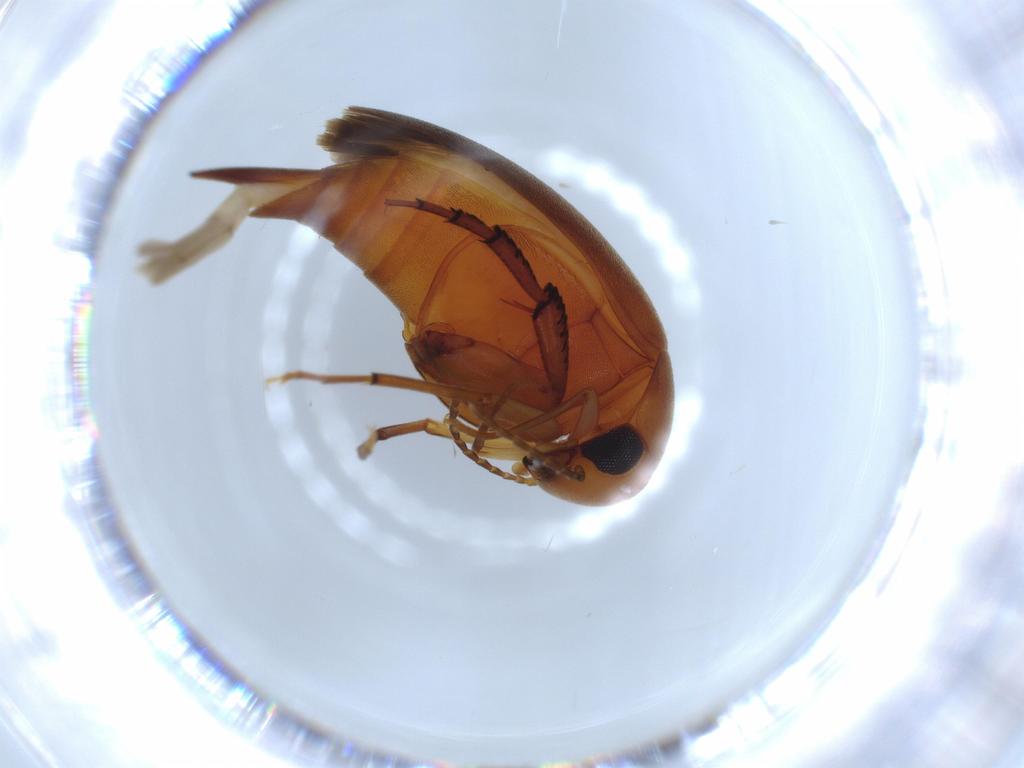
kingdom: Animalia
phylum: Arthropoda
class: Insecta
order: Coleoptera
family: Mordellidae
